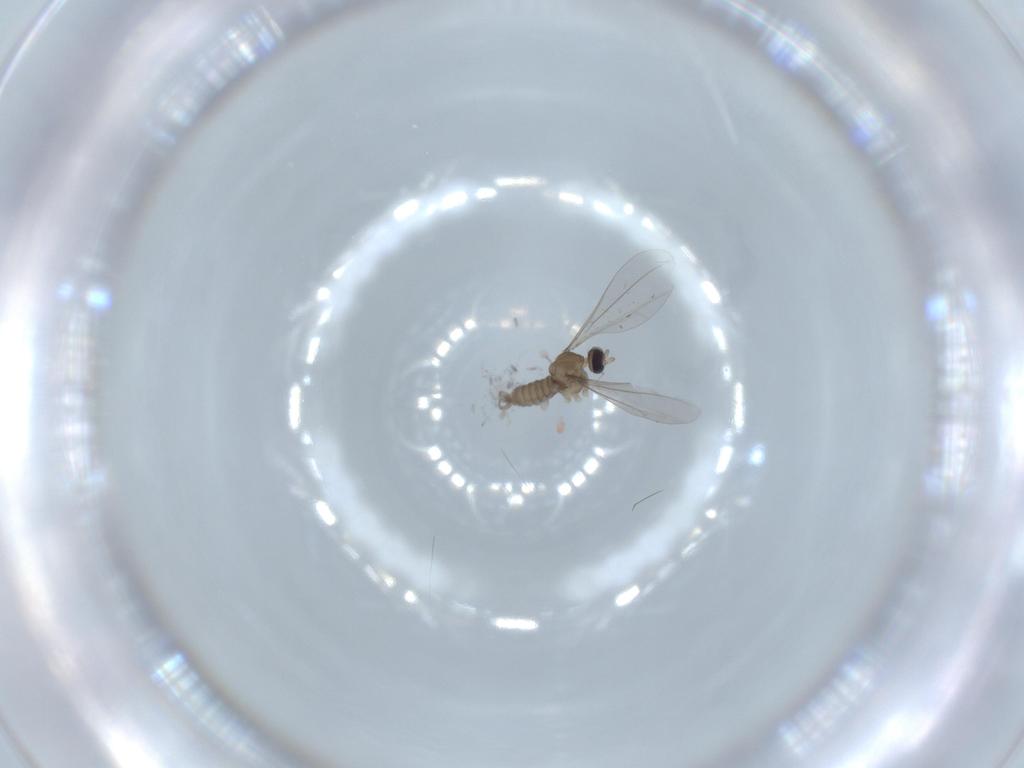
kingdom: Animalia
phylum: Arthropoda
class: Insecta
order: Diptera
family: Cecidomyiidae
